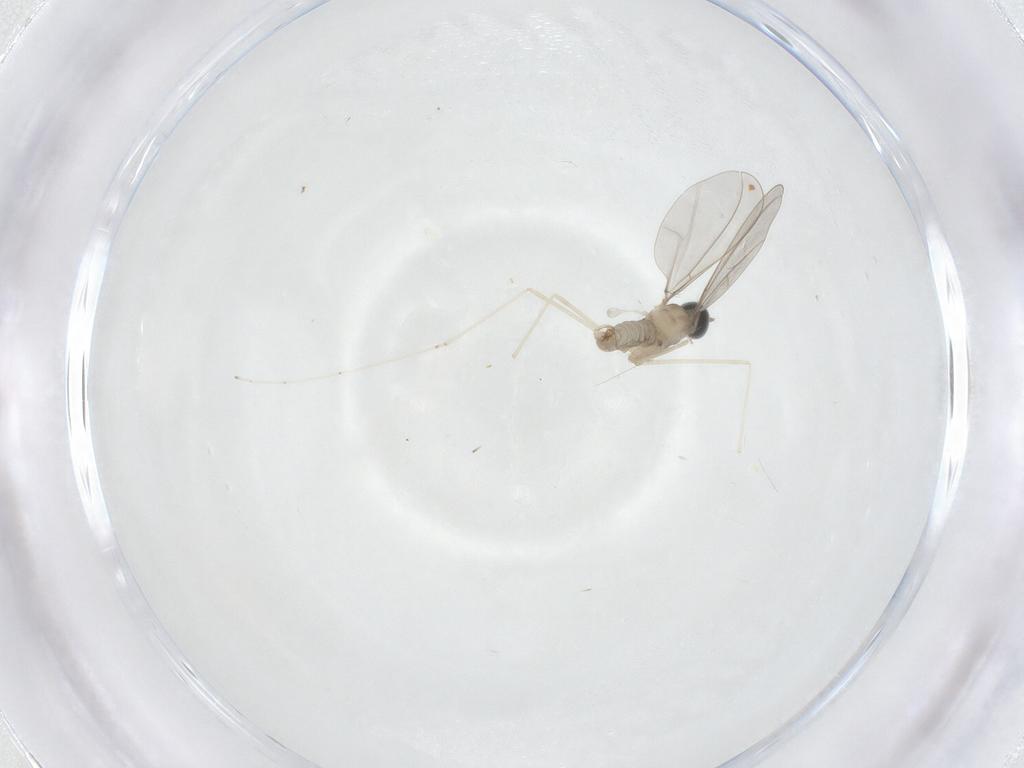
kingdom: Animalia
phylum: Arthropoda
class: Insecta
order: Diptera
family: Cecidomyiidae
